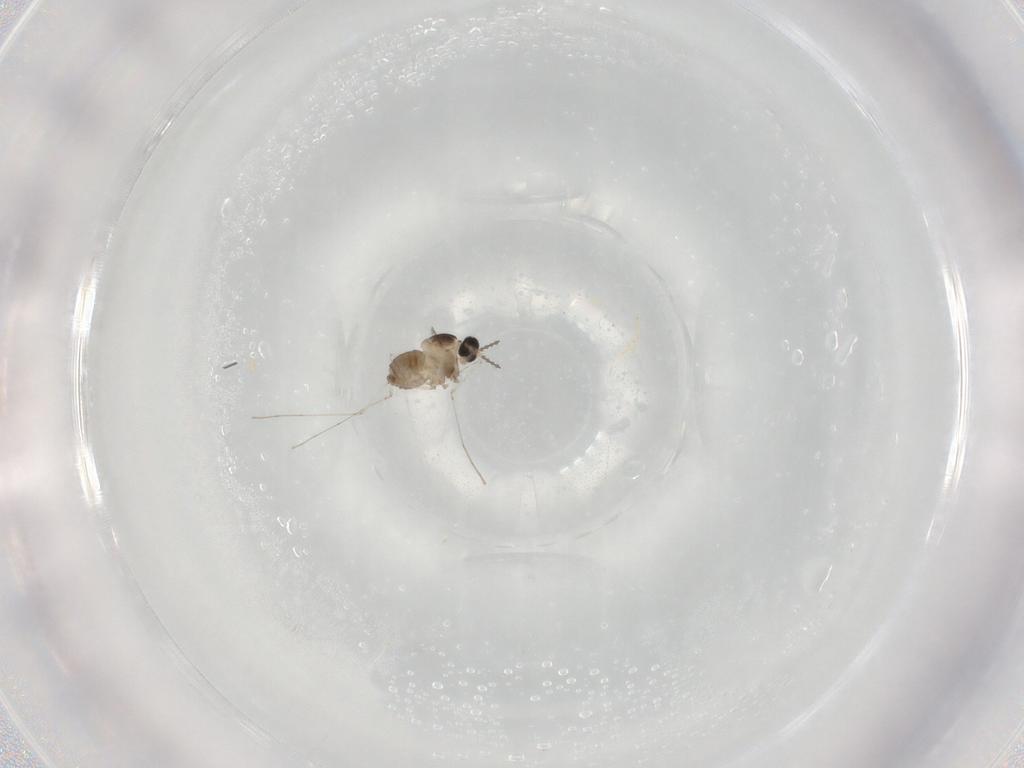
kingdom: Animalia
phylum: Arthropoda
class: Insecta
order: Diptera
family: Cecidomyiidae
